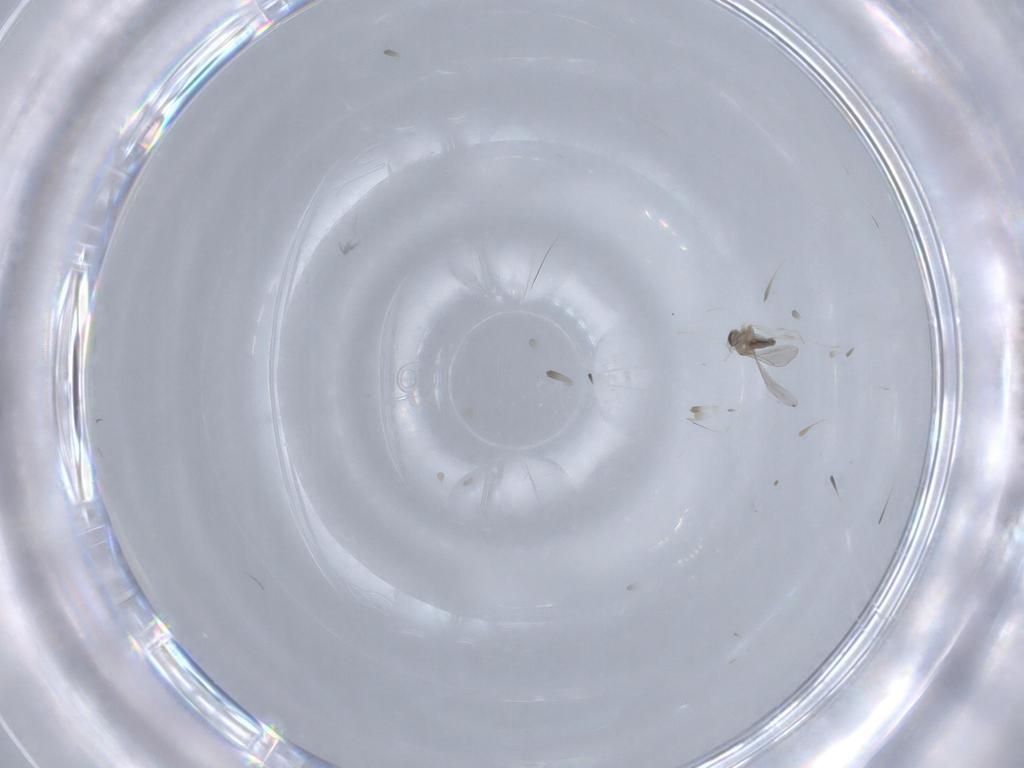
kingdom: Animalia
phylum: Arthropoda
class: Insecta
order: Diptera
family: Cecidomyiidae
